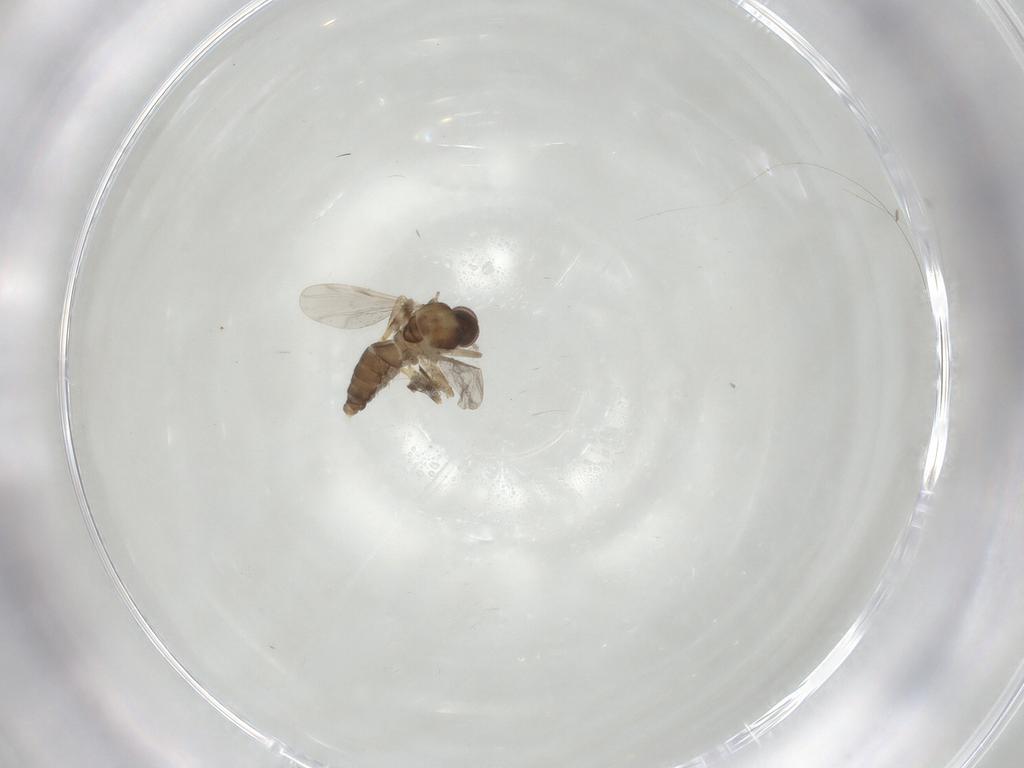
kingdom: Animalia
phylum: Arthropoda
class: Insecta
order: Diptera
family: Ceratopogonidae
